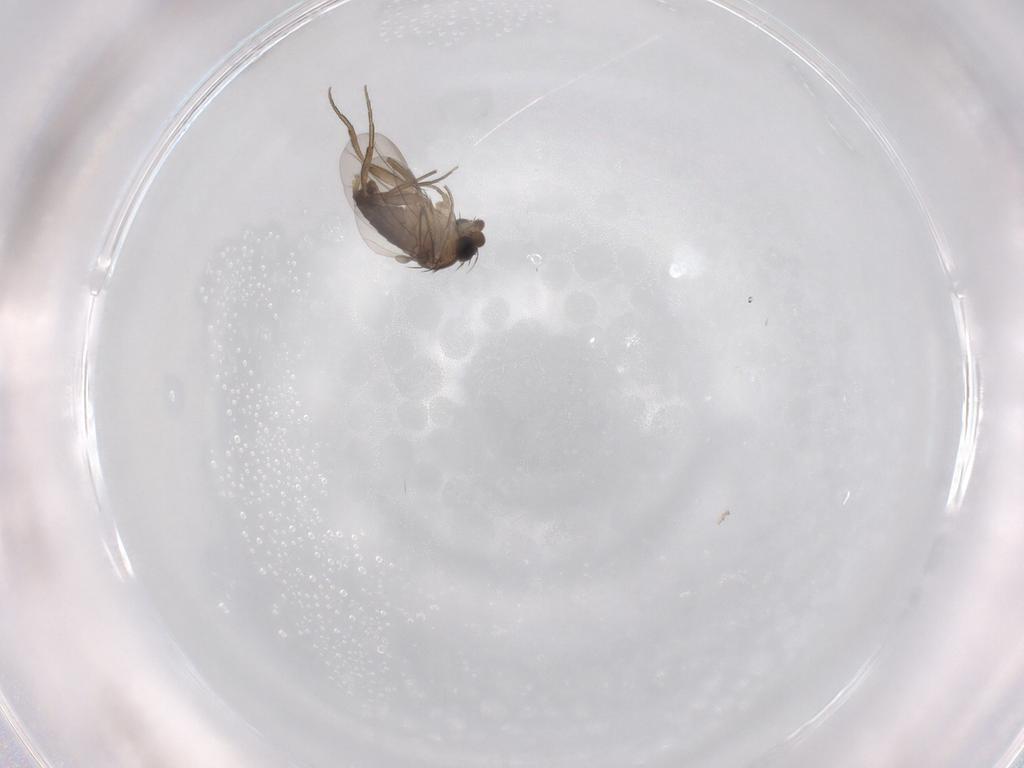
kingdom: Animalia
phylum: Arthropoda
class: Insecta
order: Diptera
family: Phoridae
